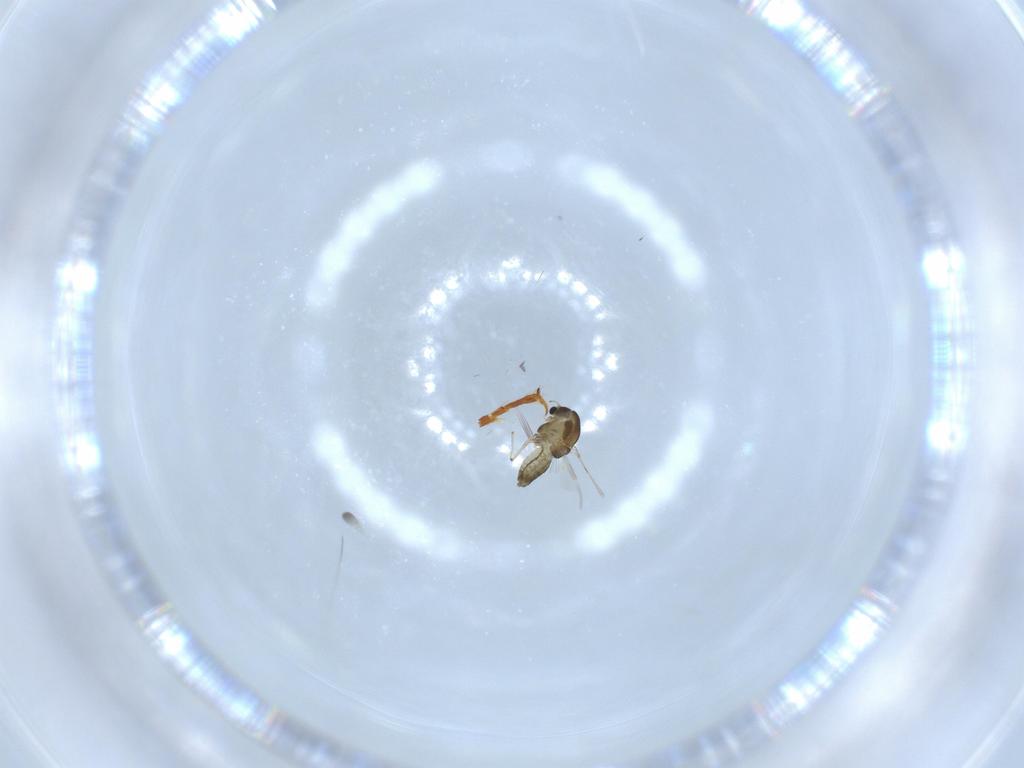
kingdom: Animalia
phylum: Arthropoda
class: Insecta
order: Diptera
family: Chironomidae
